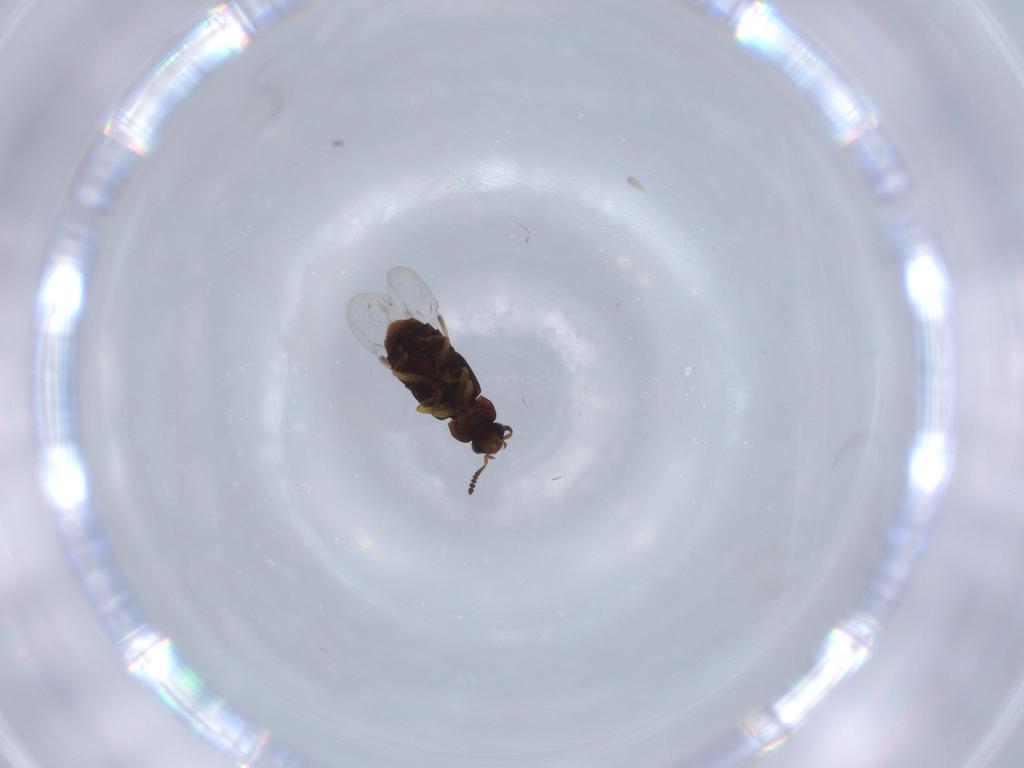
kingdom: Animalia
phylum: Arthropoda
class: Insecta
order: Coleoptera
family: Staphylinidae
